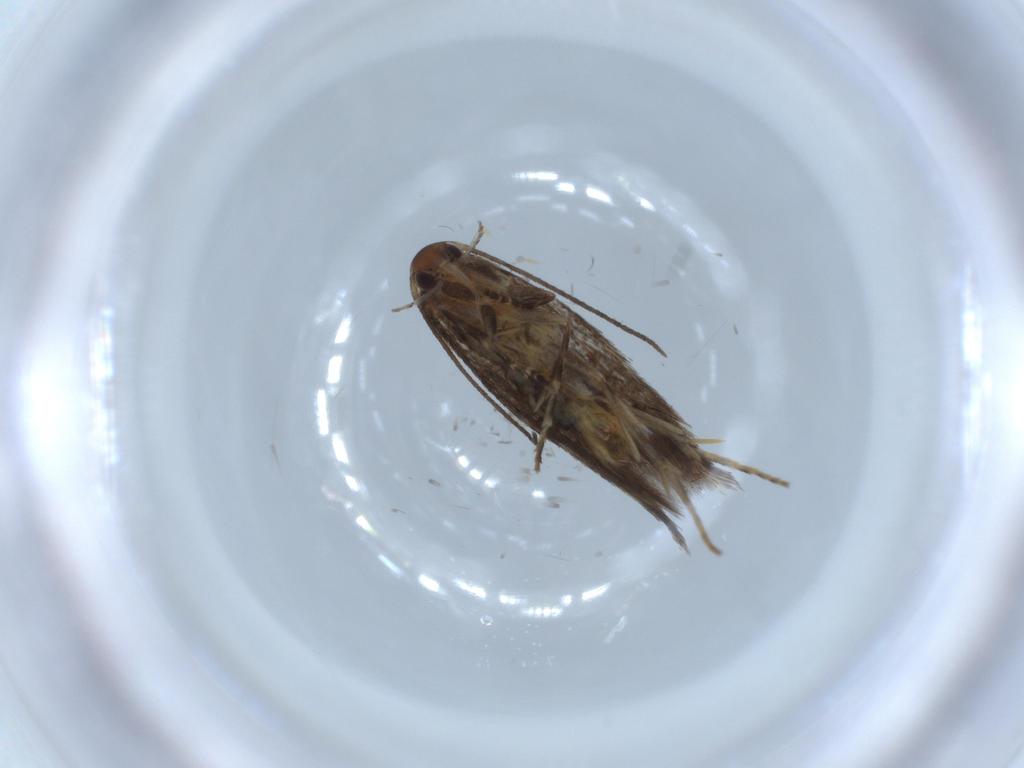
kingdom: Animalia
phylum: Arthropoda
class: Insecta
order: Lepidoptera
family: Elachistidae
